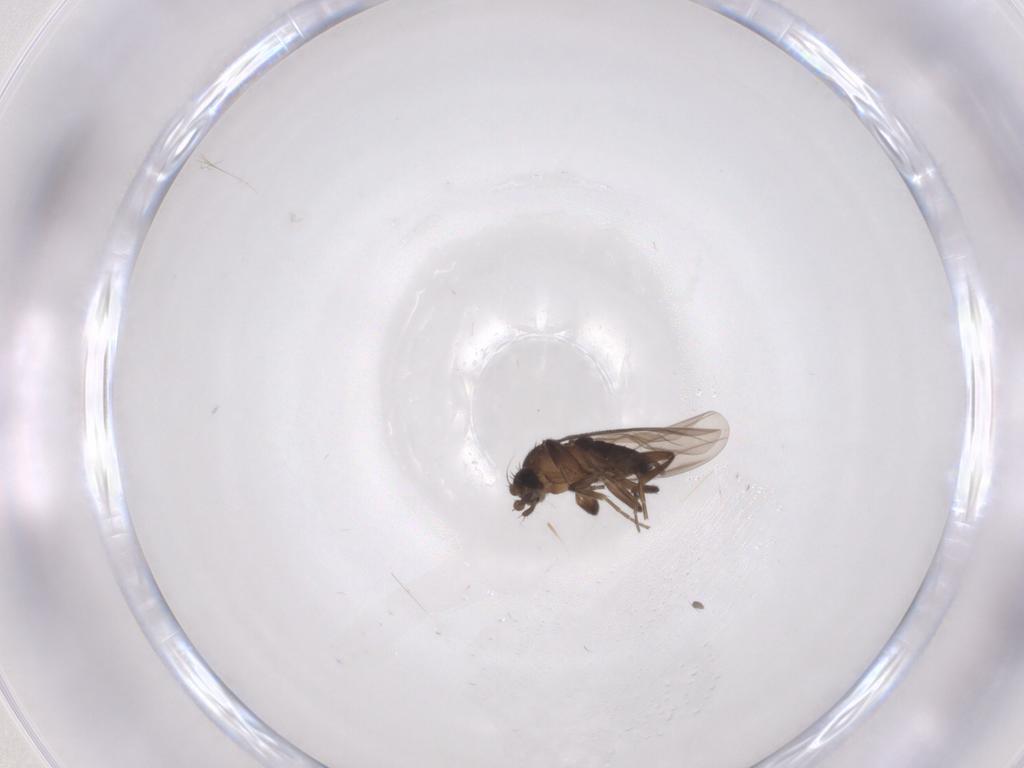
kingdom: Animalia
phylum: Arthropoda
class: Insecta
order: Diptera
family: Phoridae
